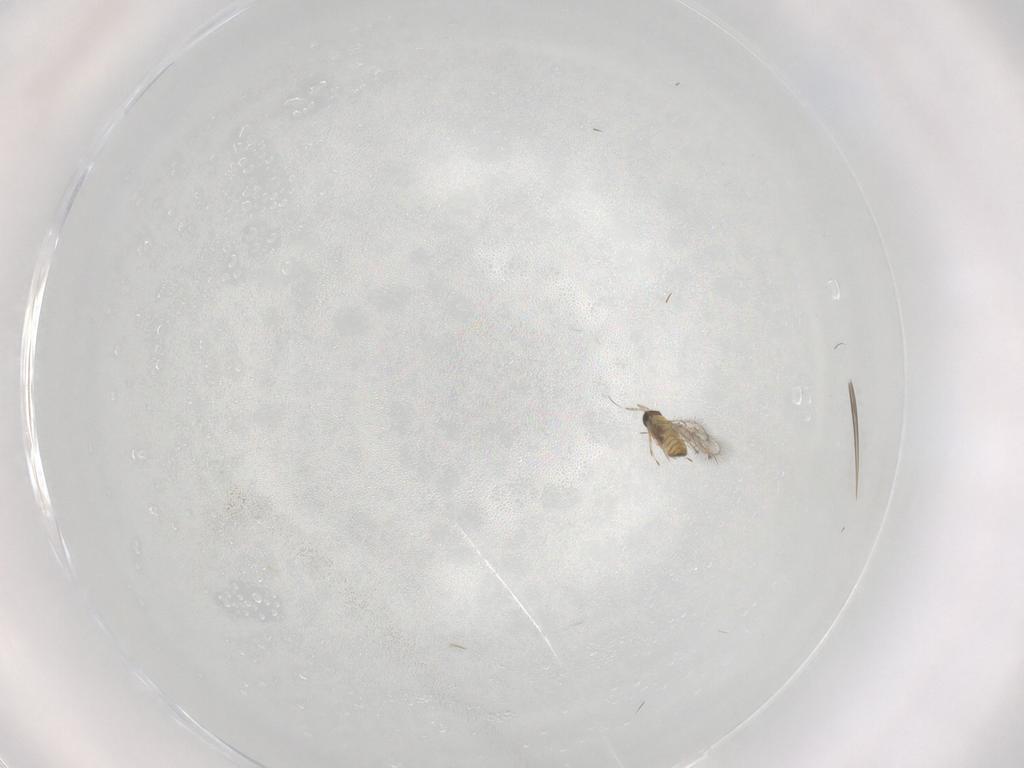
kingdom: Animalia
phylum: Arthropoda
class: Insecta
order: Hymenoptera
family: Trichogrammatidae
